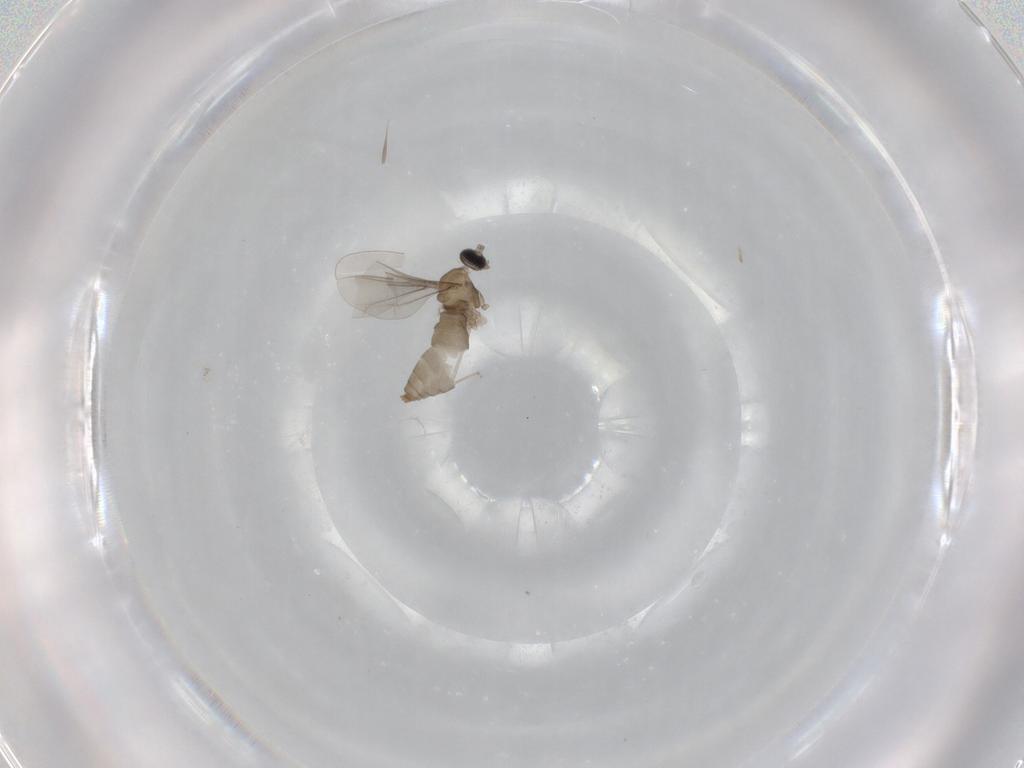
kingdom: Animalia
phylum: Arthropoda
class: Insecta
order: Diptera
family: Cecidomyiidae
